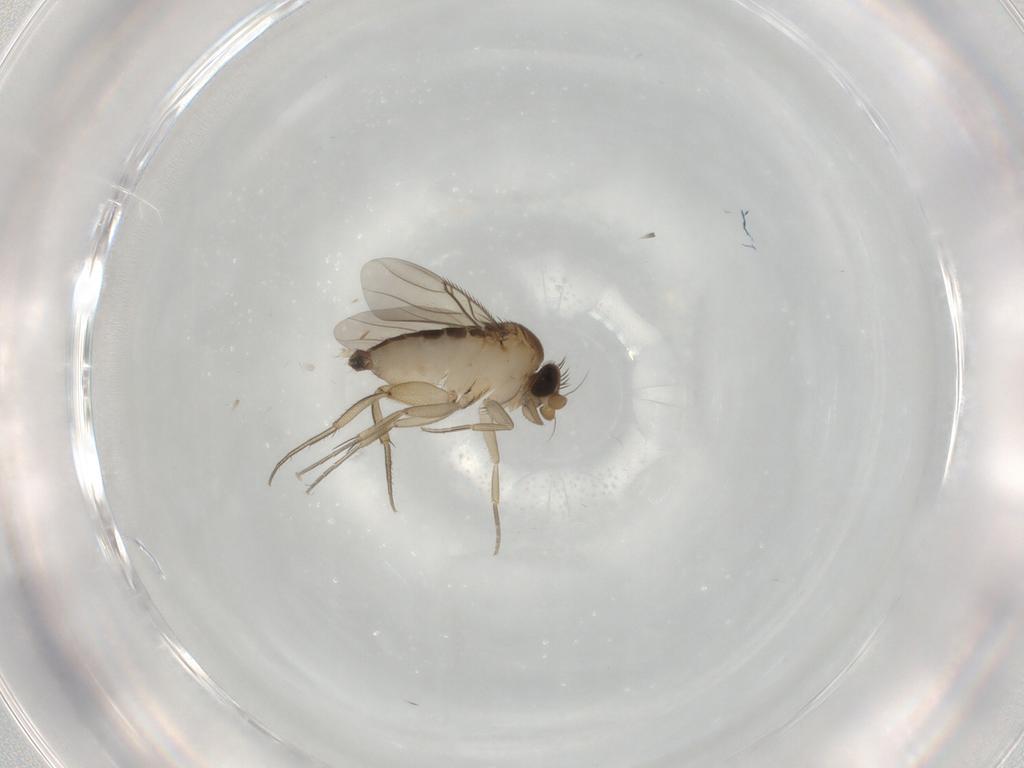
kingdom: Animalia
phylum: Arthropoda
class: Insecta
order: Diptera
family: Phoridae
